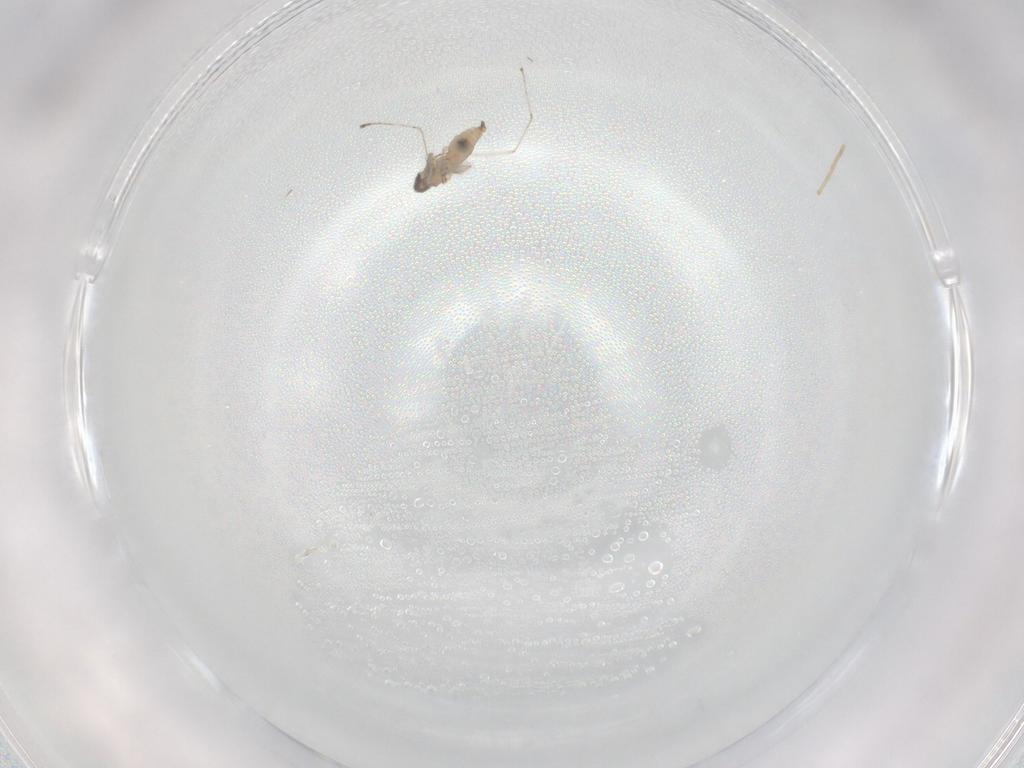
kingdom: Animalia
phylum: Arthropoda
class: Insecta
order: Diptera
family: Cecidomyiidae
